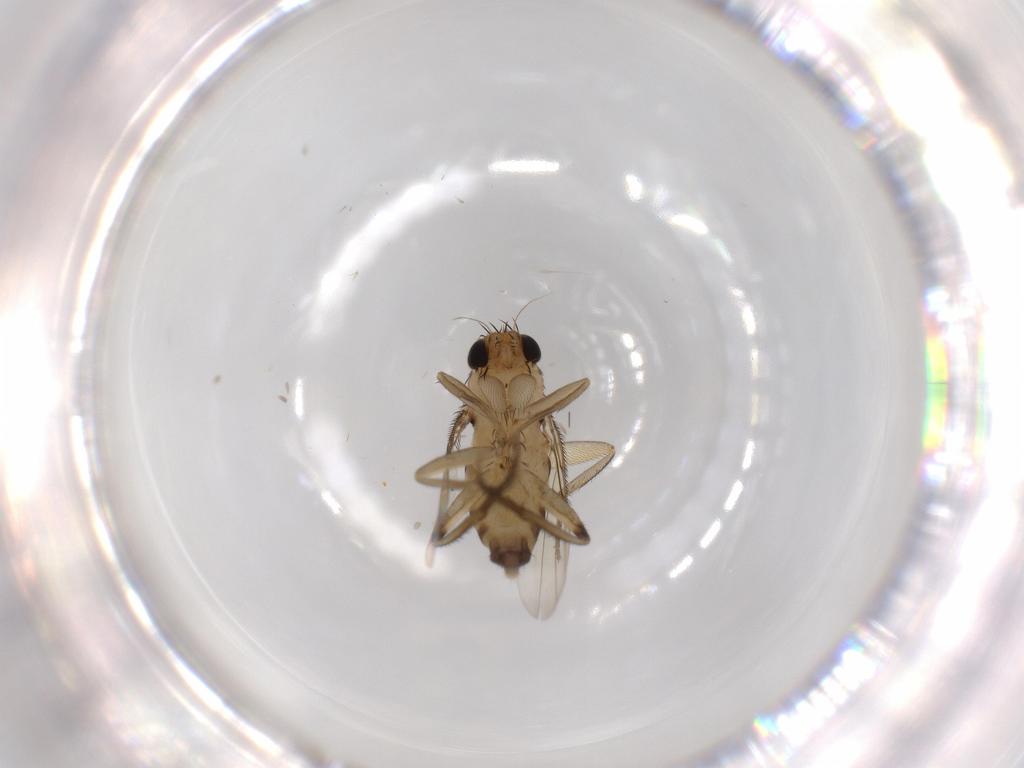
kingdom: Animalia
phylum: Arthropoda
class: Insecta
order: Diptera
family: Phoridae
